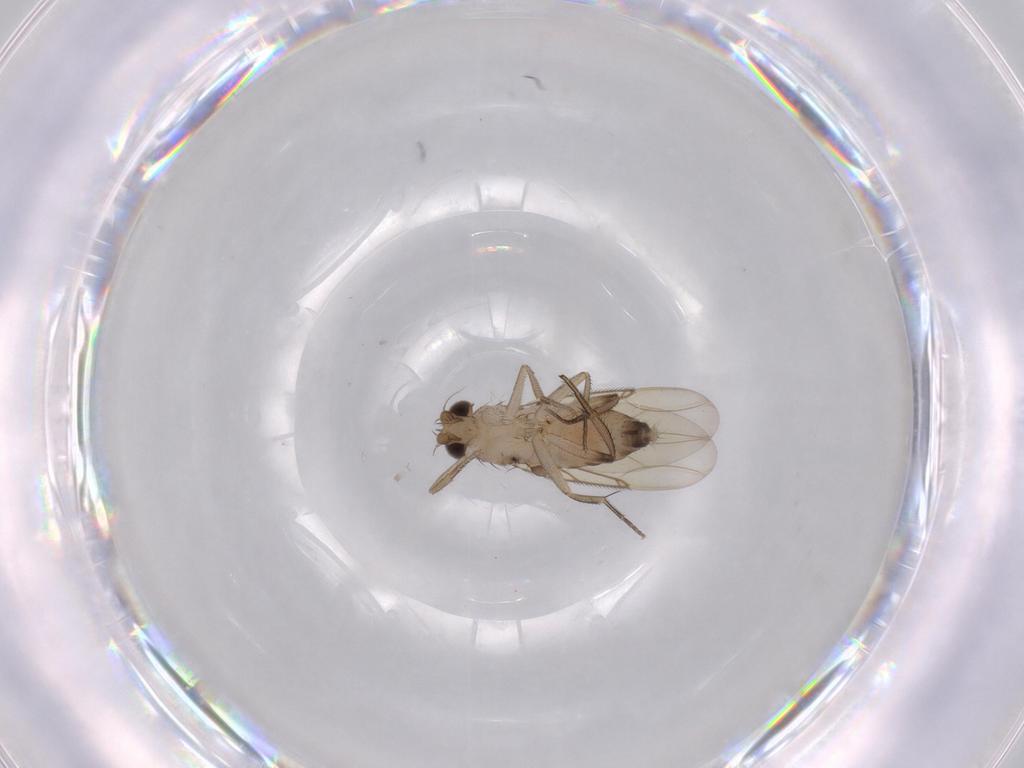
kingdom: Animalia
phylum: Arthropoda
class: Insecta
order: Diptera
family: Phoridae
